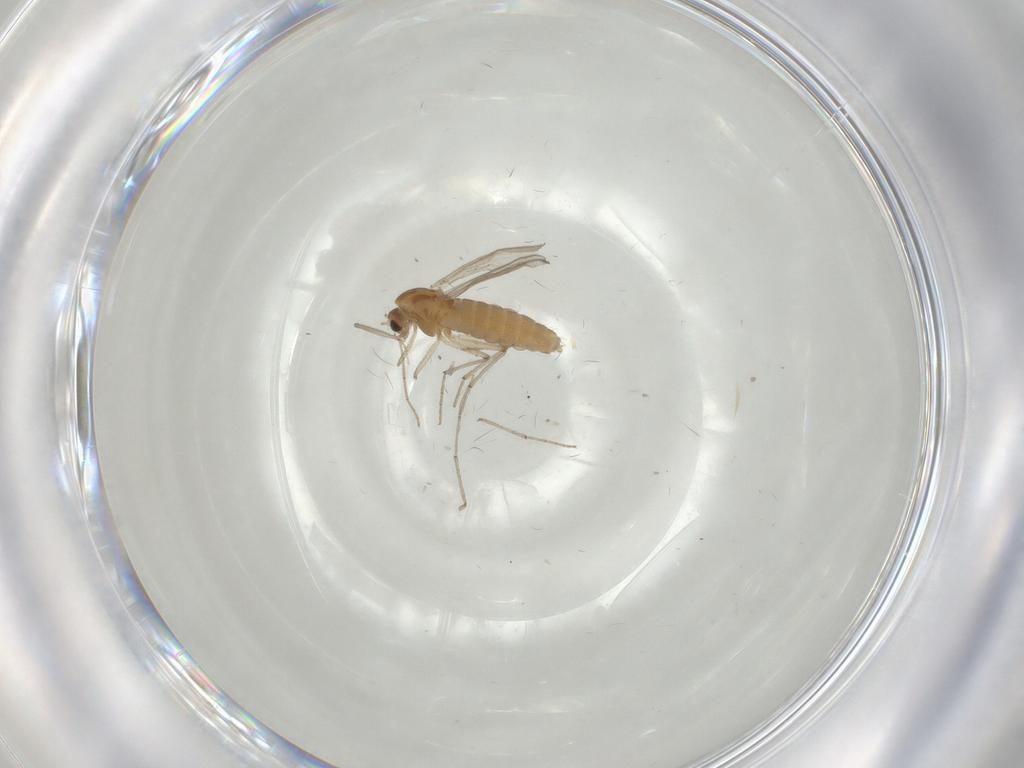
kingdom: Animalia
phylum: Arthropoda
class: Insecta
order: Diptera
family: Chironomidae
